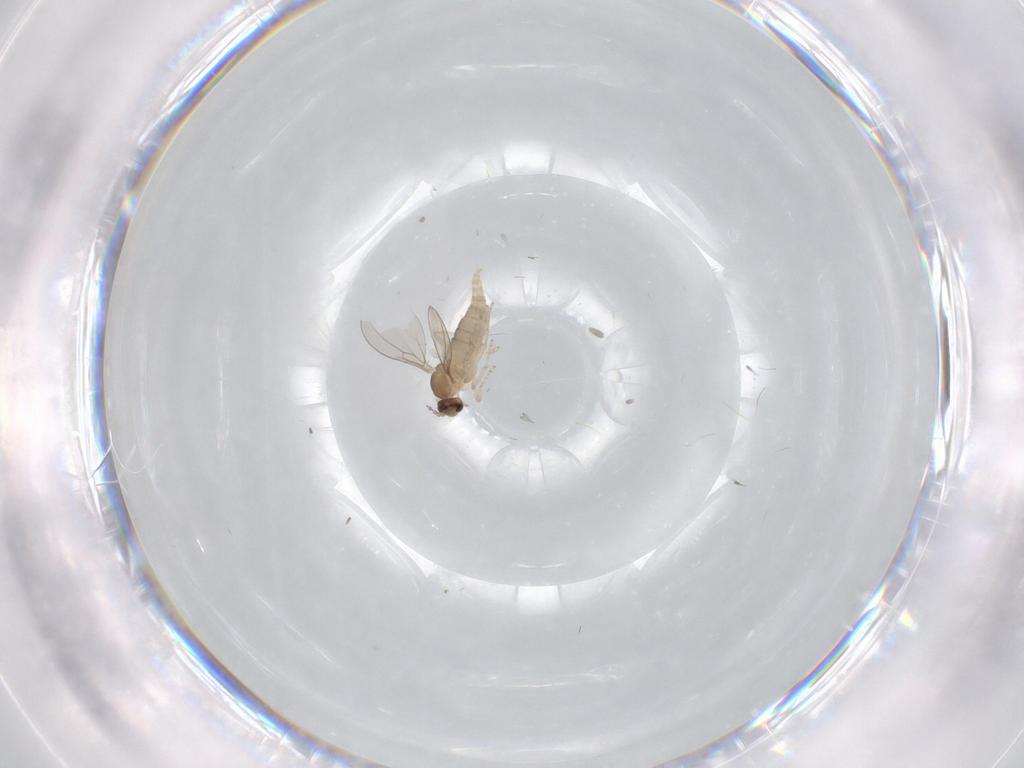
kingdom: Animalia
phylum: Arthropoda
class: Insecta
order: Diptera
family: Cecidomyiidae
